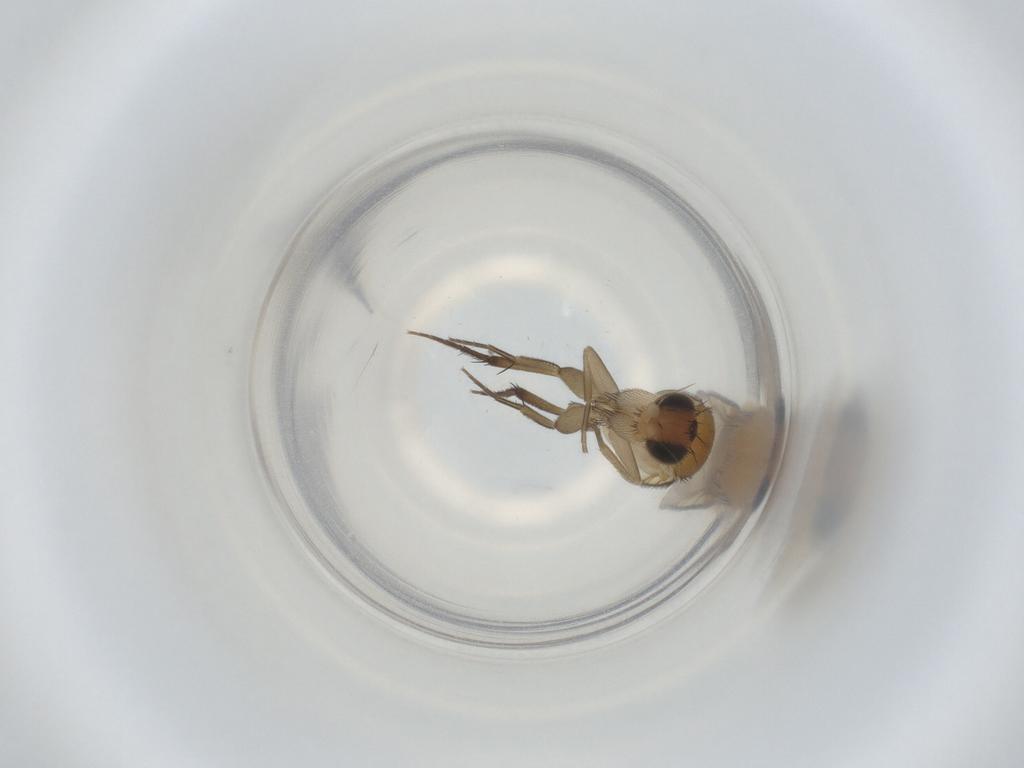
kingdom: Animalia
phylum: Arthropoda
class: Insecta
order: Diptera
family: Phoridae
